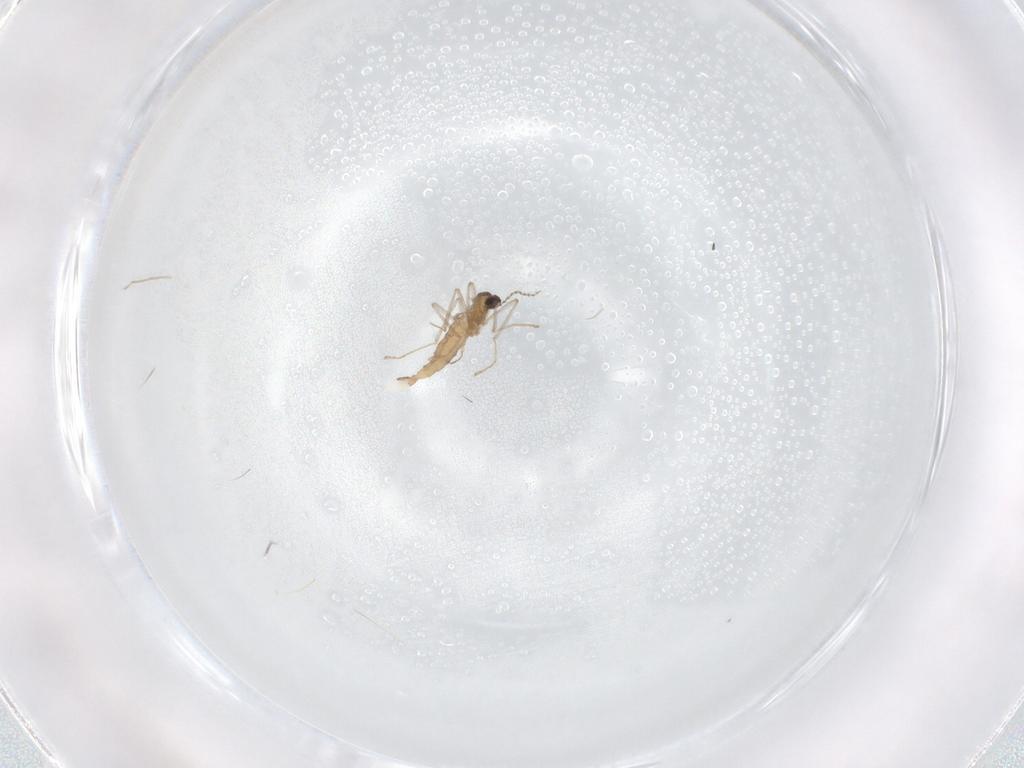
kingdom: Animalia
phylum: Arthropoda
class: Insecta
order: Diptera
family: Cecidomyiidae
